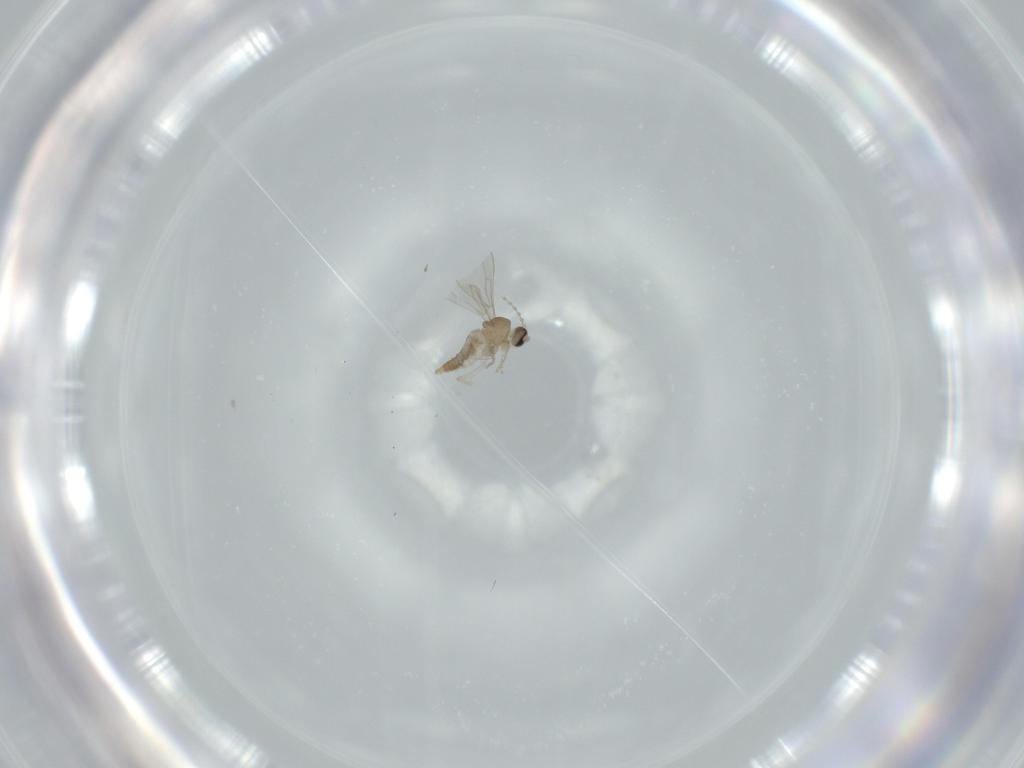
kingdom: Animalia
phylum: Arthropoda
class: Insecta
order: Diptera
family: Cecidomyiidae
